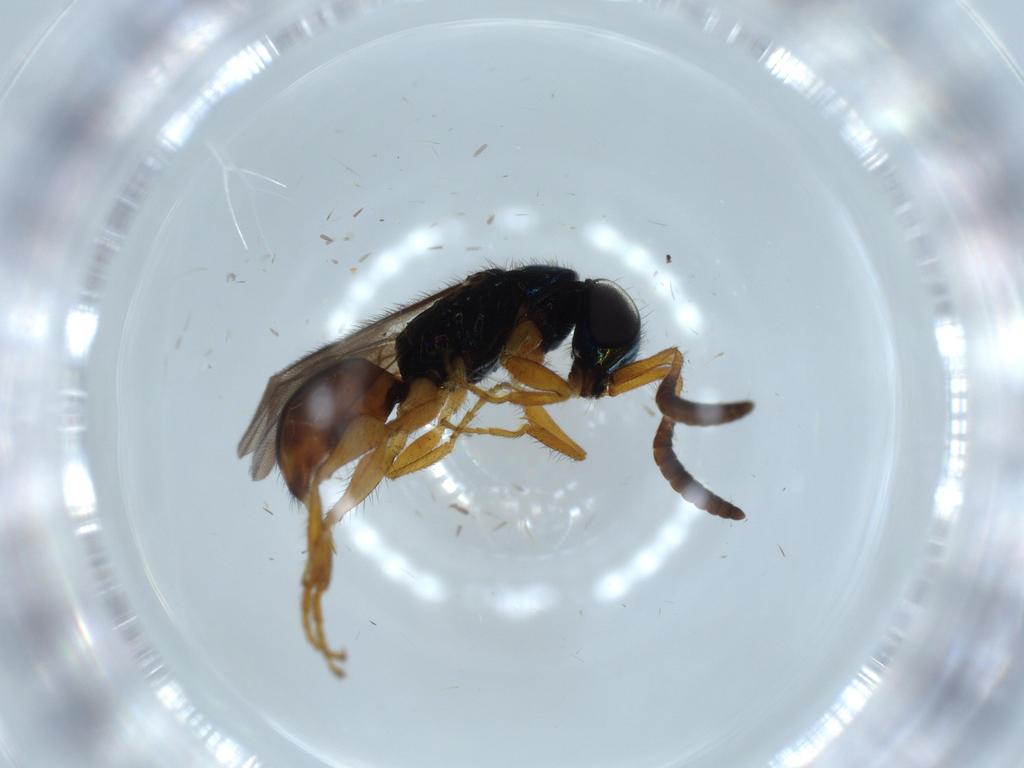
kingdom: Animalia
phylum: Arthropoda
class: Insecta
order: Hymenoptera
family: Chrysididae
